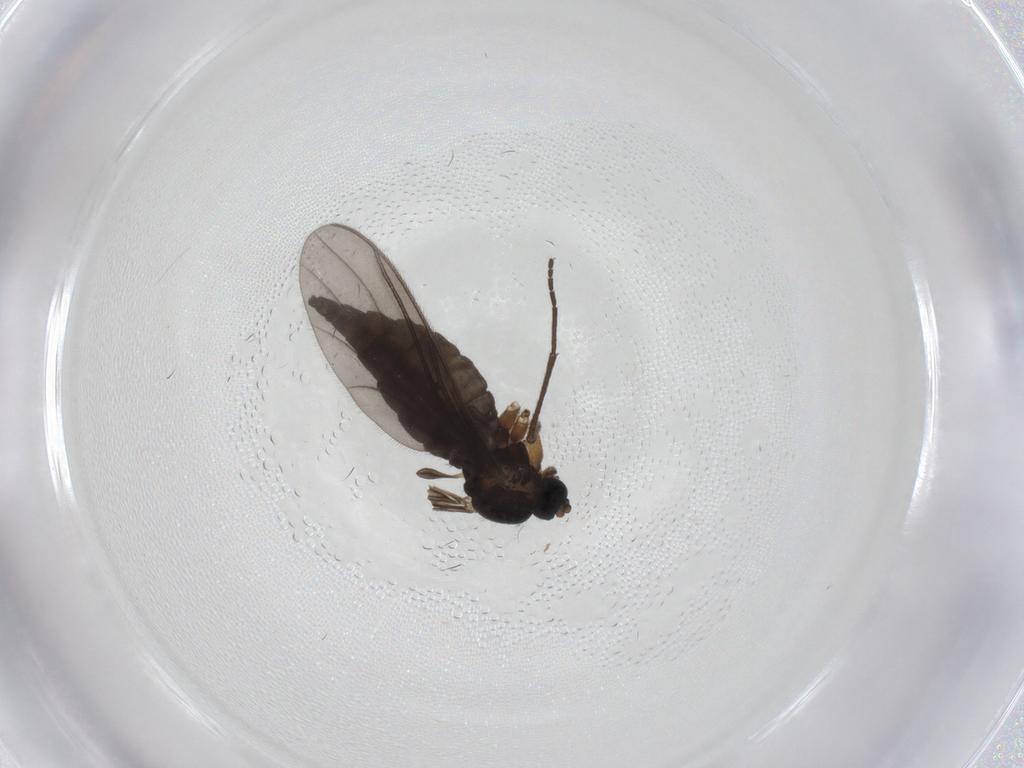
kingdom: Animalia
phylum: Arthropoda
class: Insecta
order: Diptera
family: Sciaridae
